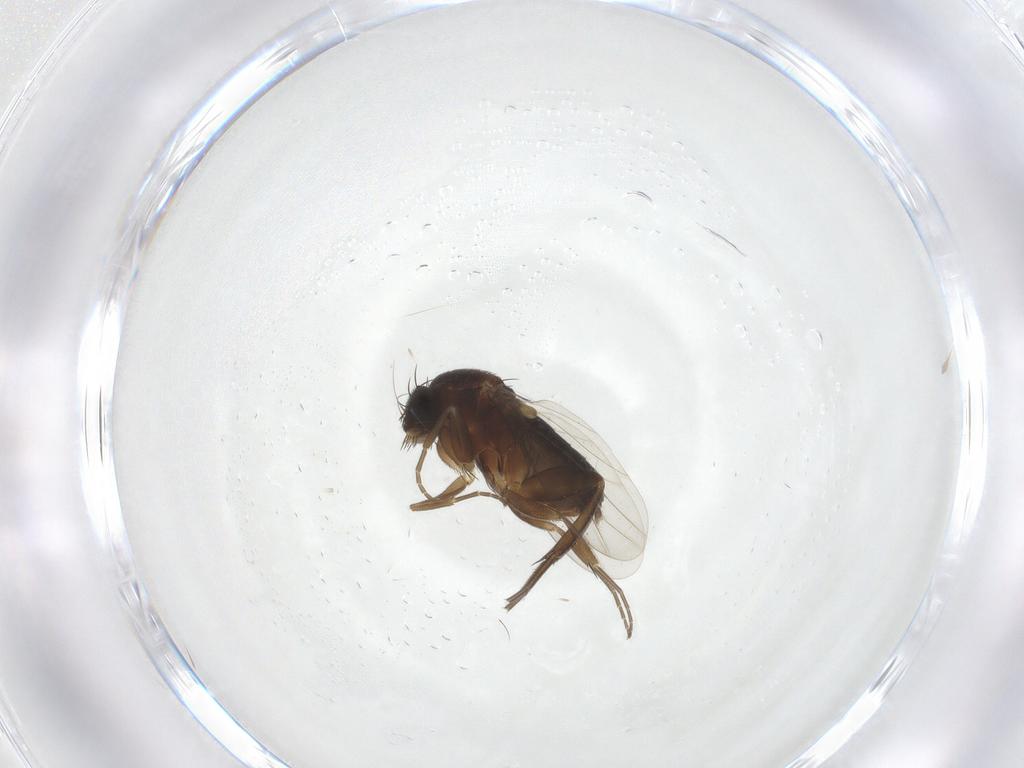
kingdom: Animalia
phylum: Arthropoda
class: Insecta
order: Diptera
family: Phoridae
